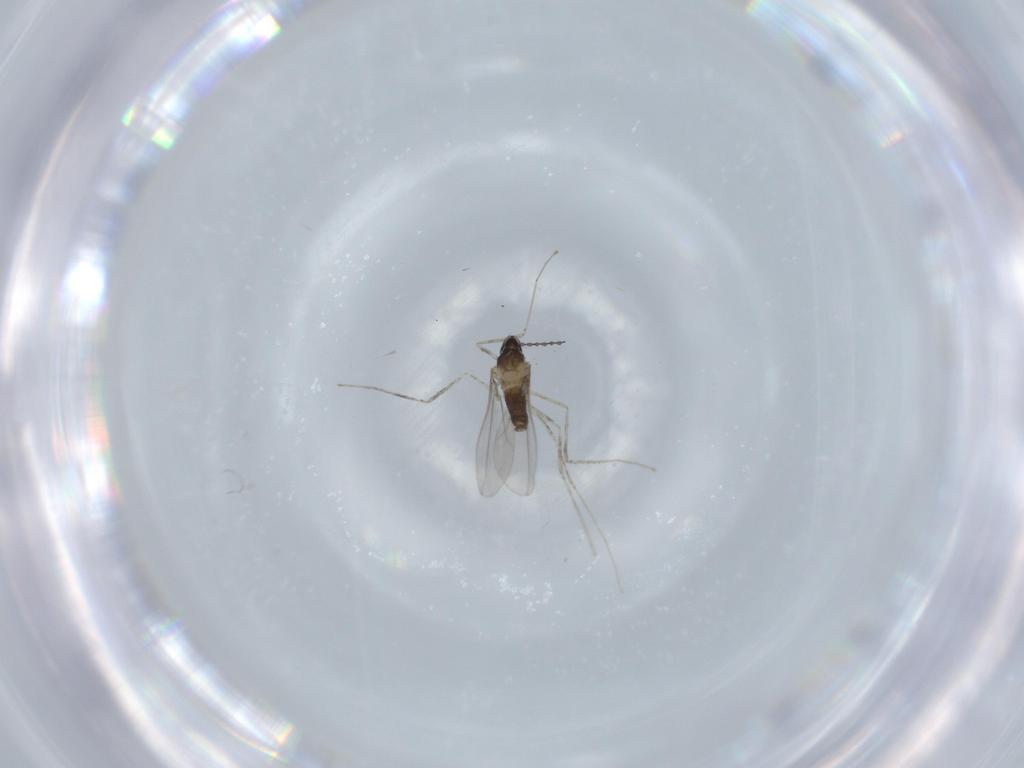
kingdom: Animalia
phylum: Arthropoda
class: Insecta
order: Diptera
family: Cecidomyiidae
